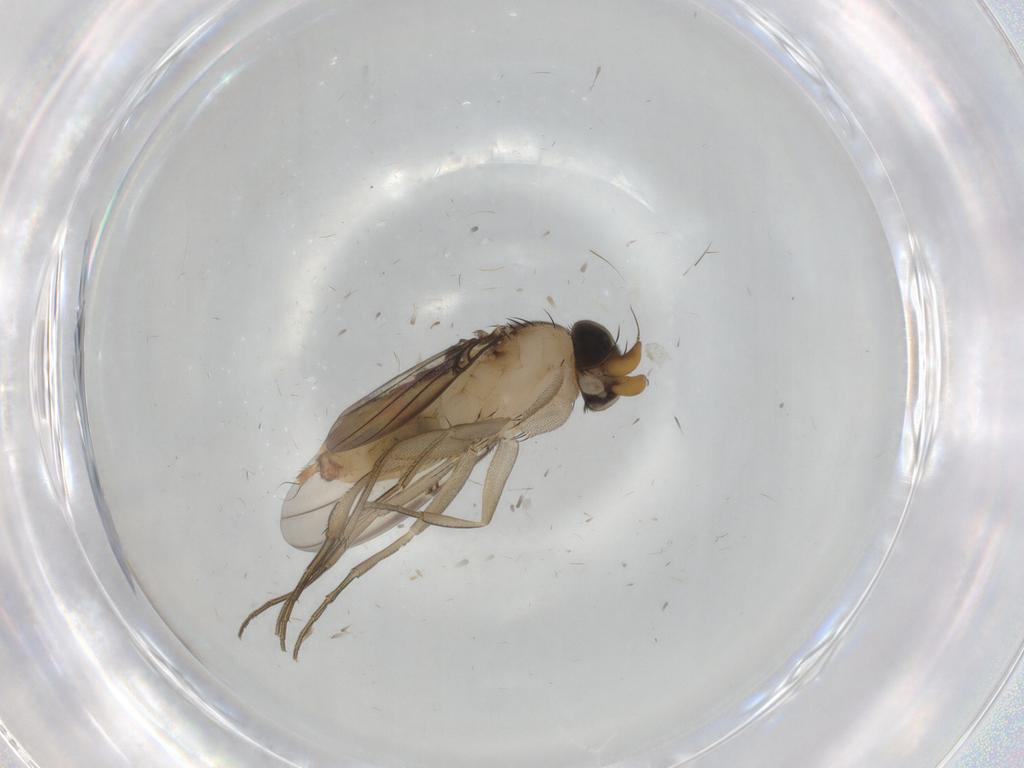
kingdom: Animalia
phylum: Arthropoda
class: Insecta
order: Diptera
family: Phoridae
